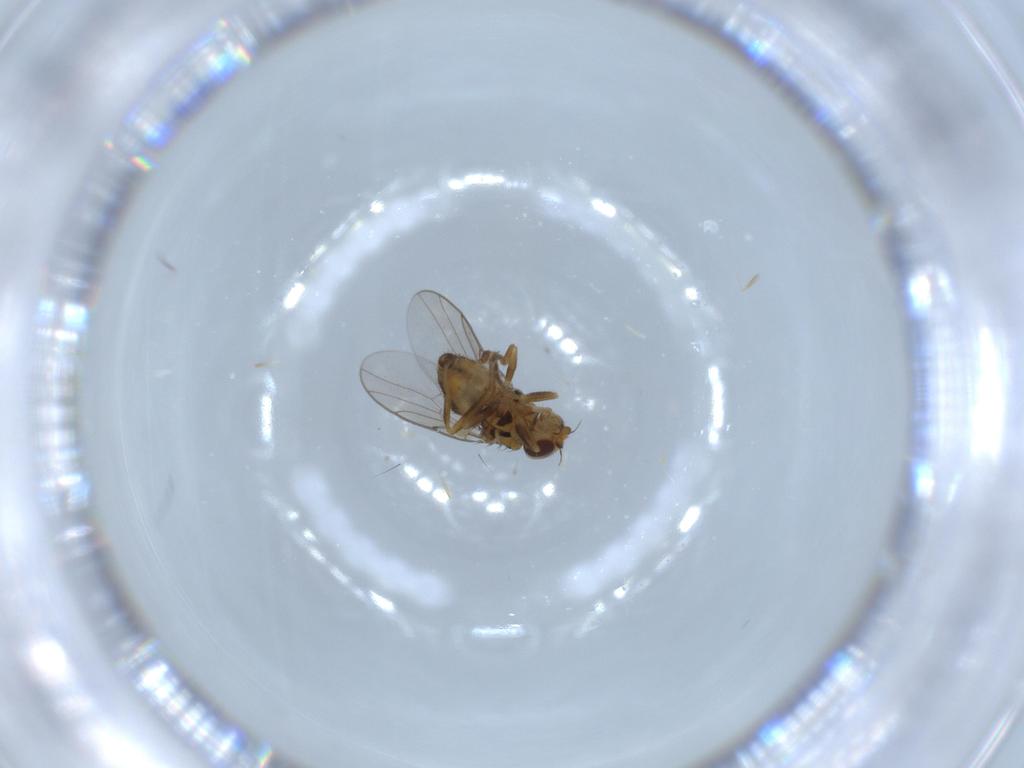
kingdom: Animalia
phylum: Arthropoda
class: Insecta
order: Diptera
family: Chloropidae
